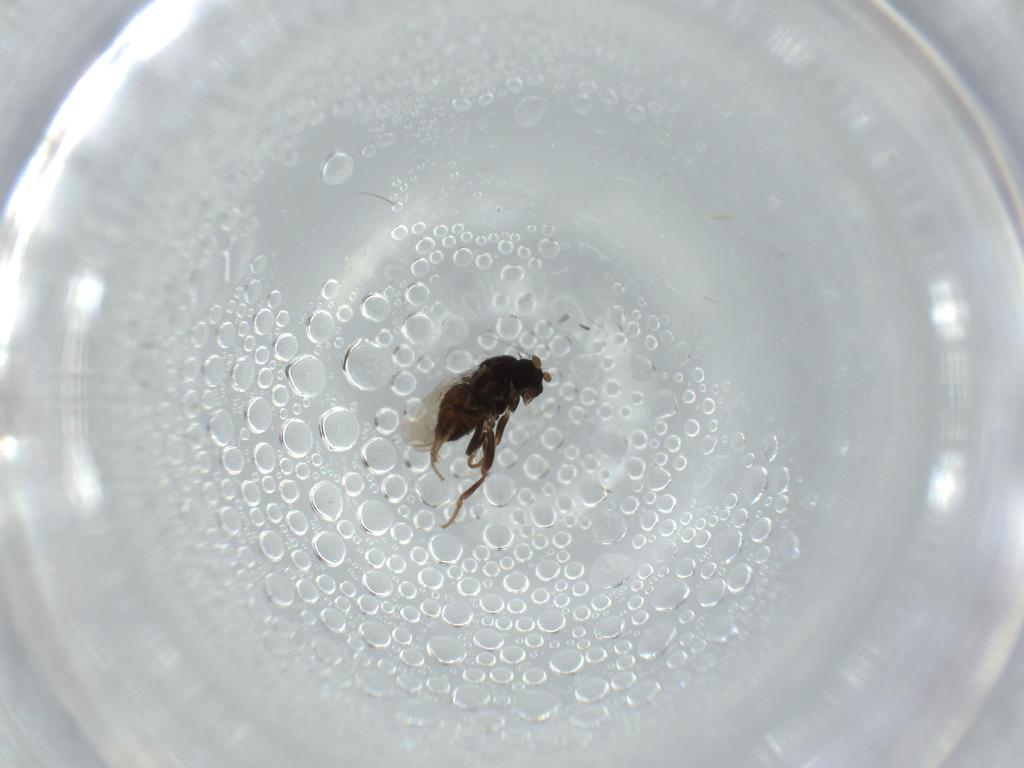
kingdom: Animalia
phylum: Arthropoda
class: Insecta
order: Diptera
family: Sphaeroceridae
